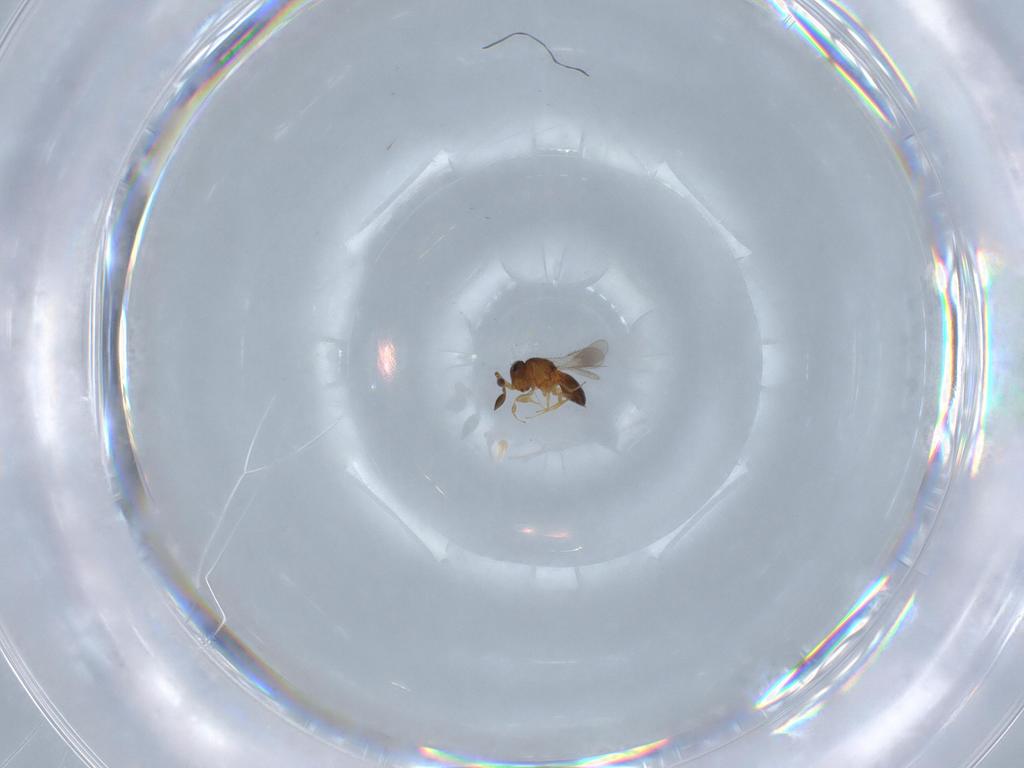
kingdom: Animalia
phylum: Arthropoda
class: Insecta
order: Hymenoptera
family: Scelionidae
